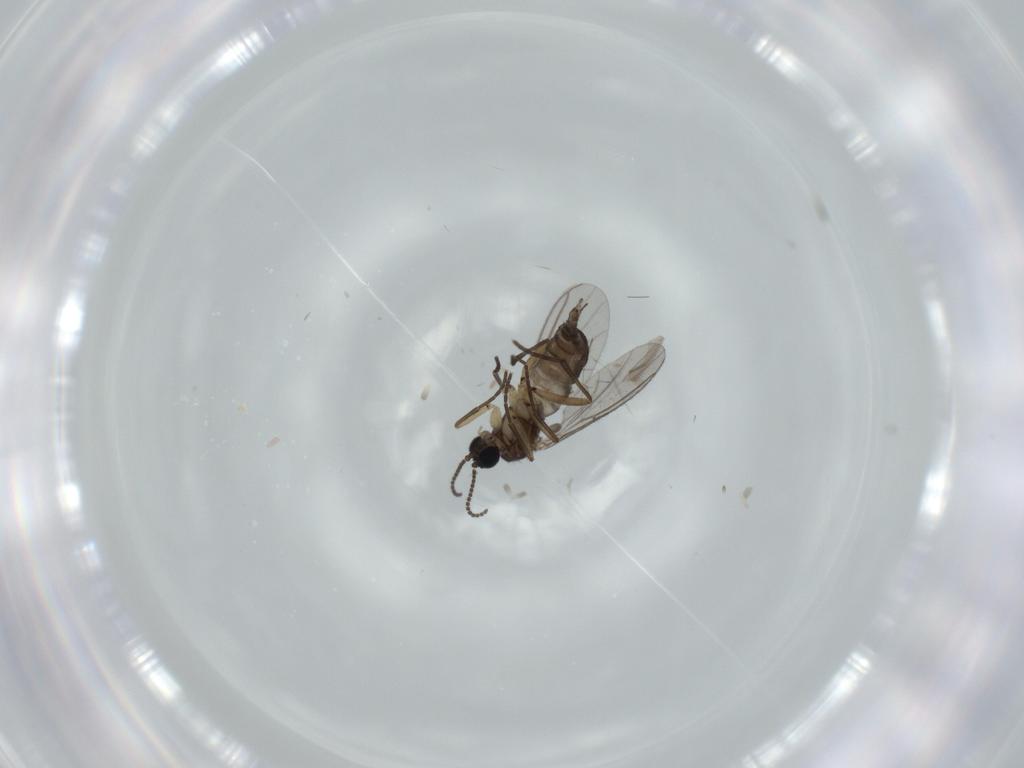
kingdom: Animalia
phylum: Arthropoda
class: Insecta
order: Diptera
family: Sciaridae
